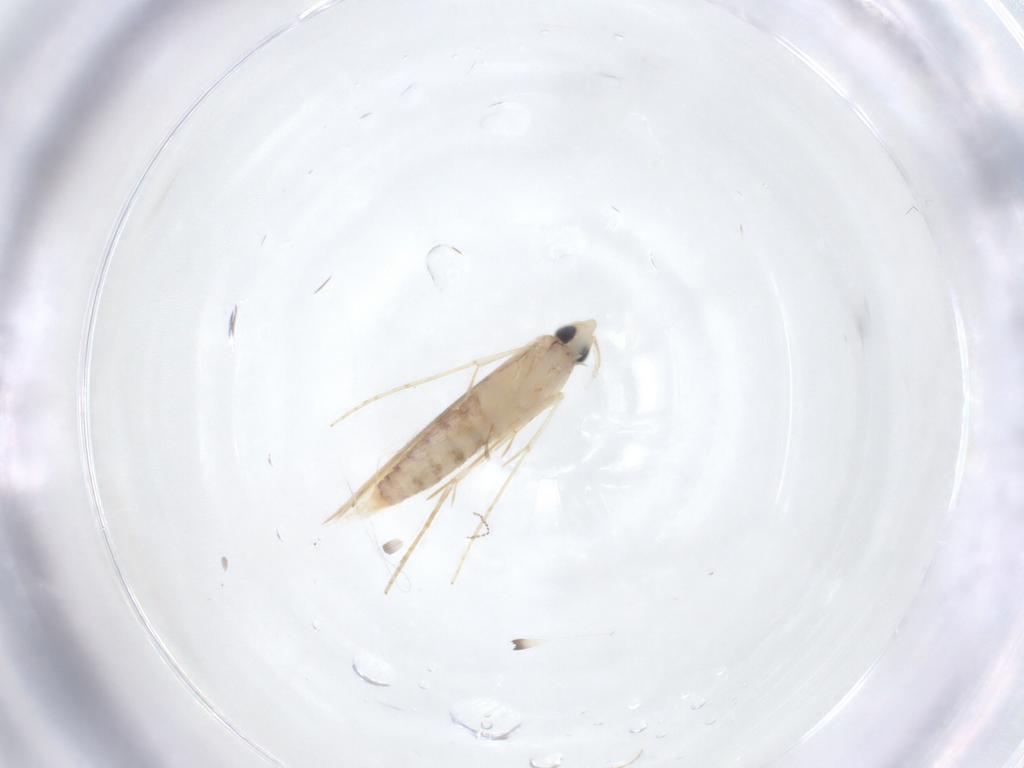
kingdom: Animalia
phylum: Arthropoda
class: Insecta
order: Lepidoptera
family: Tineidae
